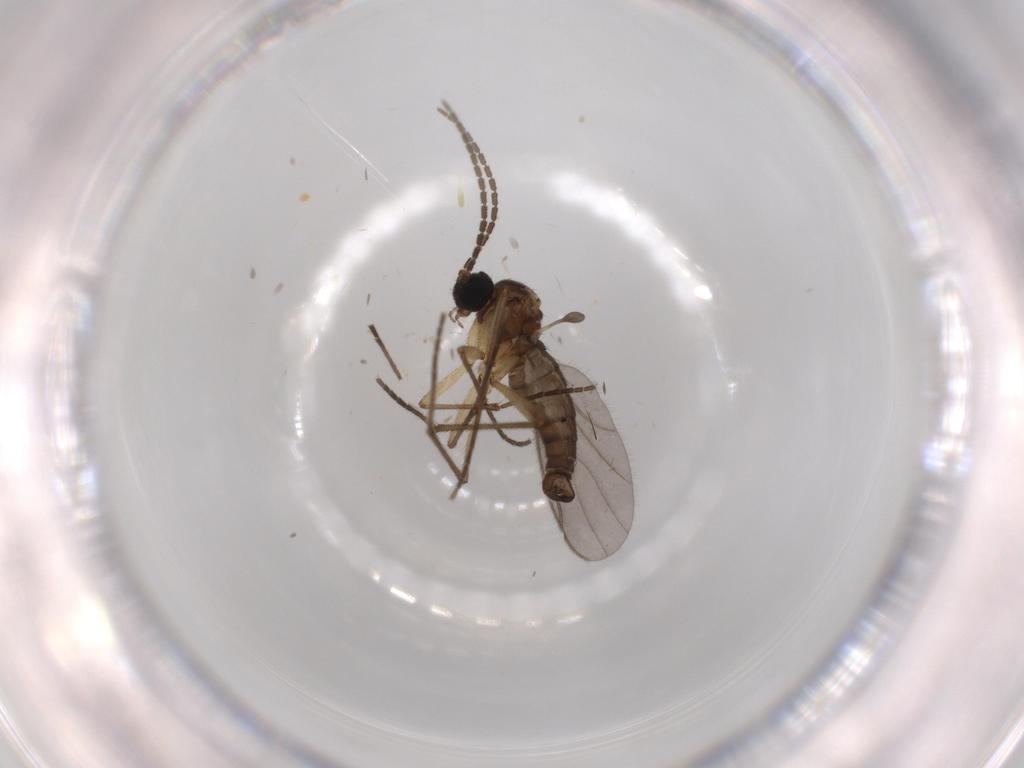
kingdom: Animalia
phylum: Arthropoda
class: Insecta
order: Diptera
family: Sciaridae
